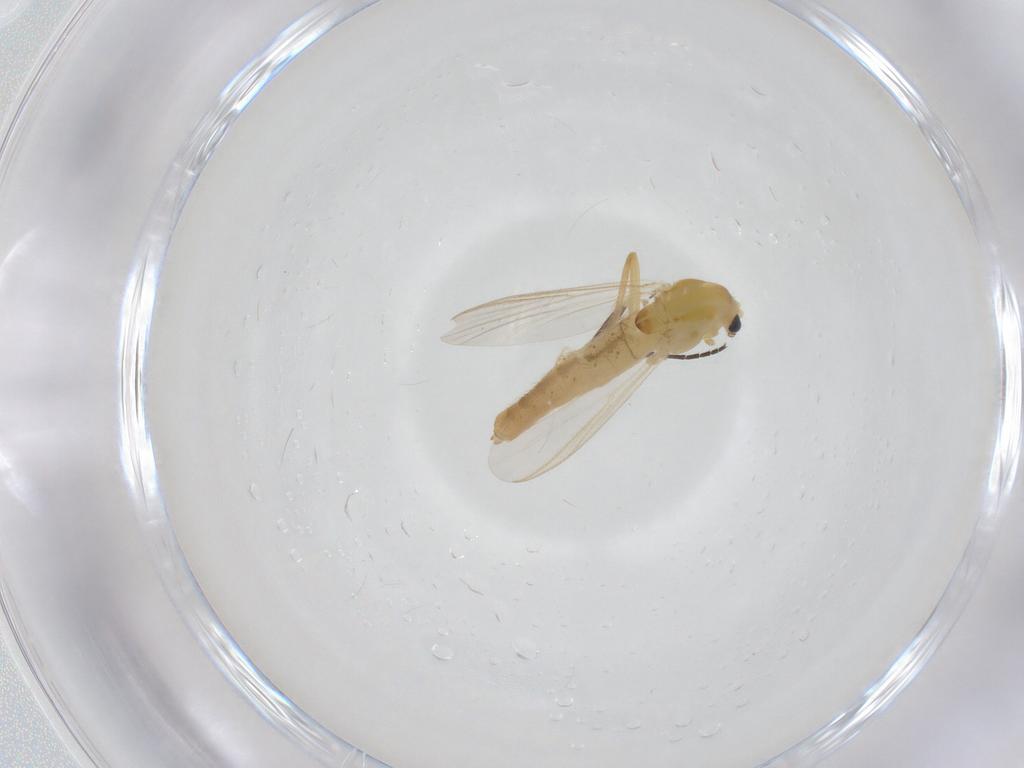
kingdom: Animalia
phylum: Arthropoda
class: Insecta
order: Diptera
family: Chironomidae
